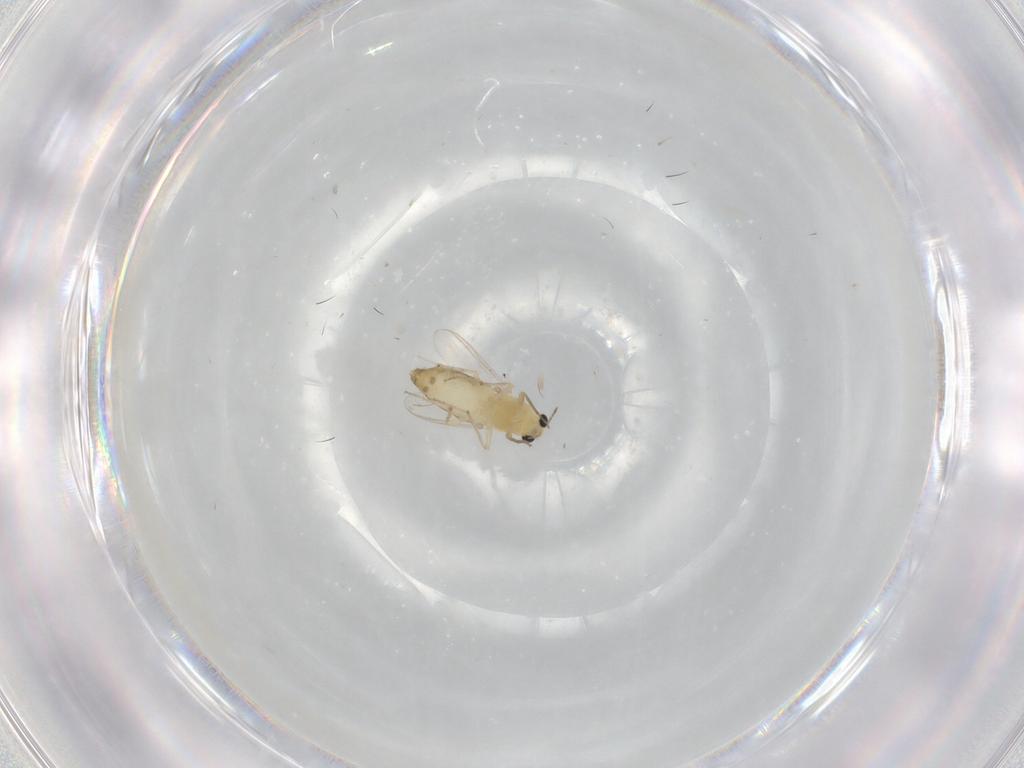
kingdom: Animalia
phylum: Arthropoda
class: Insecta
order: Diptera
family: Chironomidae
